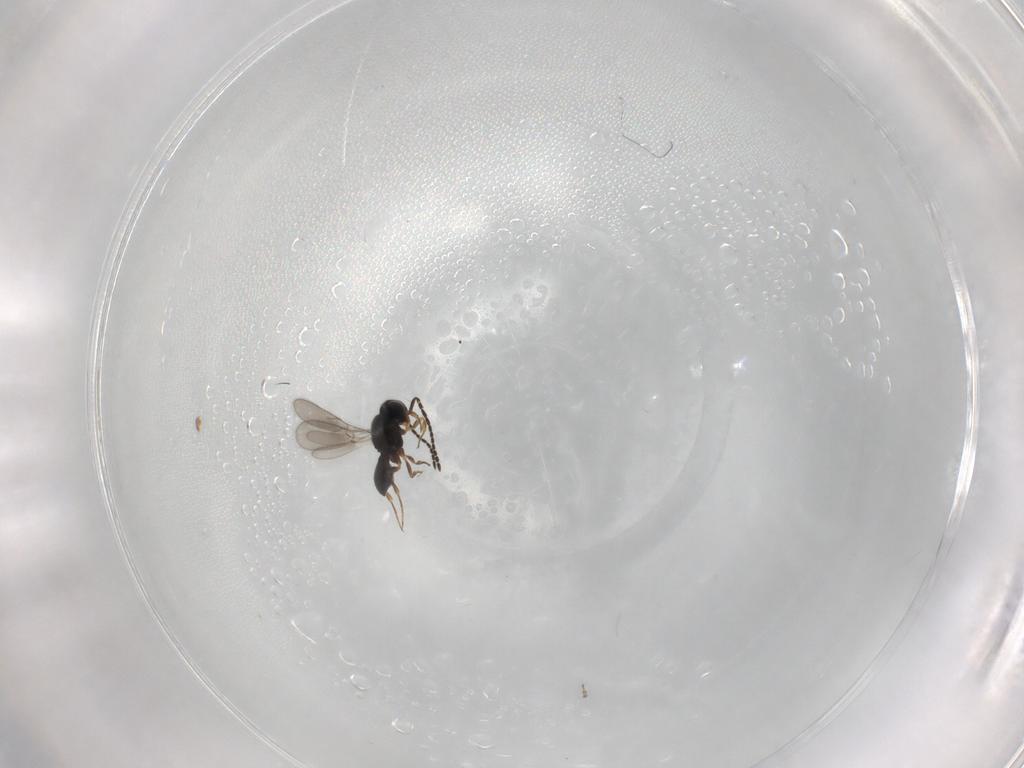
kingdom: Animalia
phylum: Arthropoda
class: Insecta
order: Hymenoptera
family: Scelionidae
